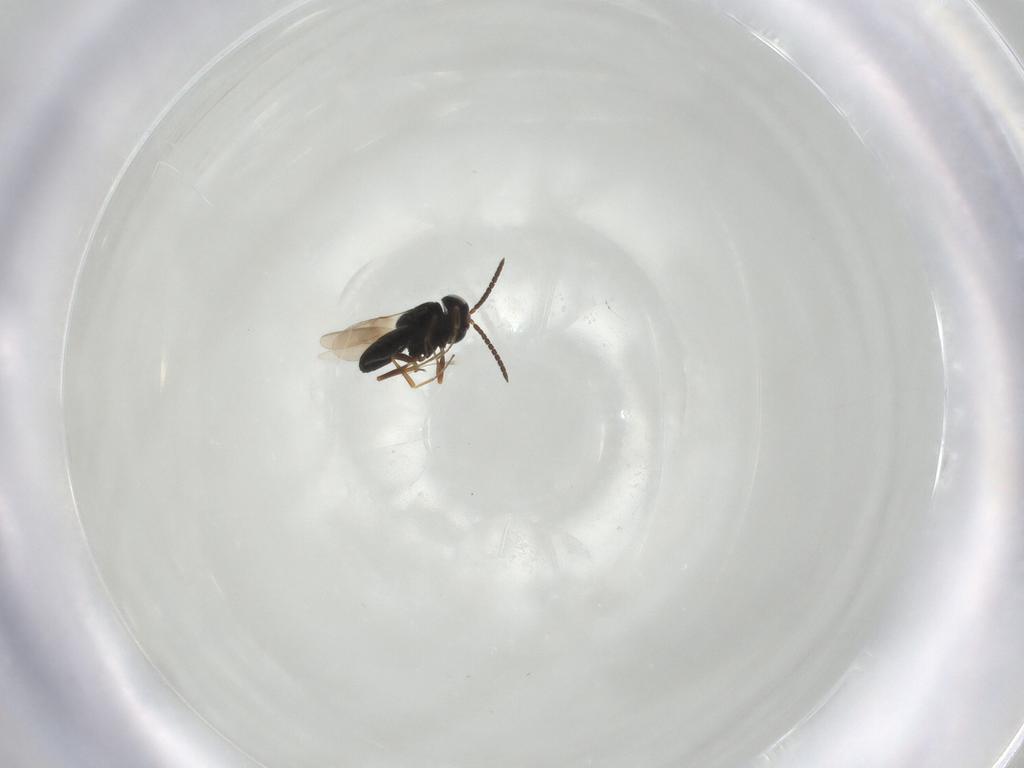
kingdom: Animalia
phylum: Arthropoda
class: Insecta
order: Hymenoptera
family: Scelionidae
